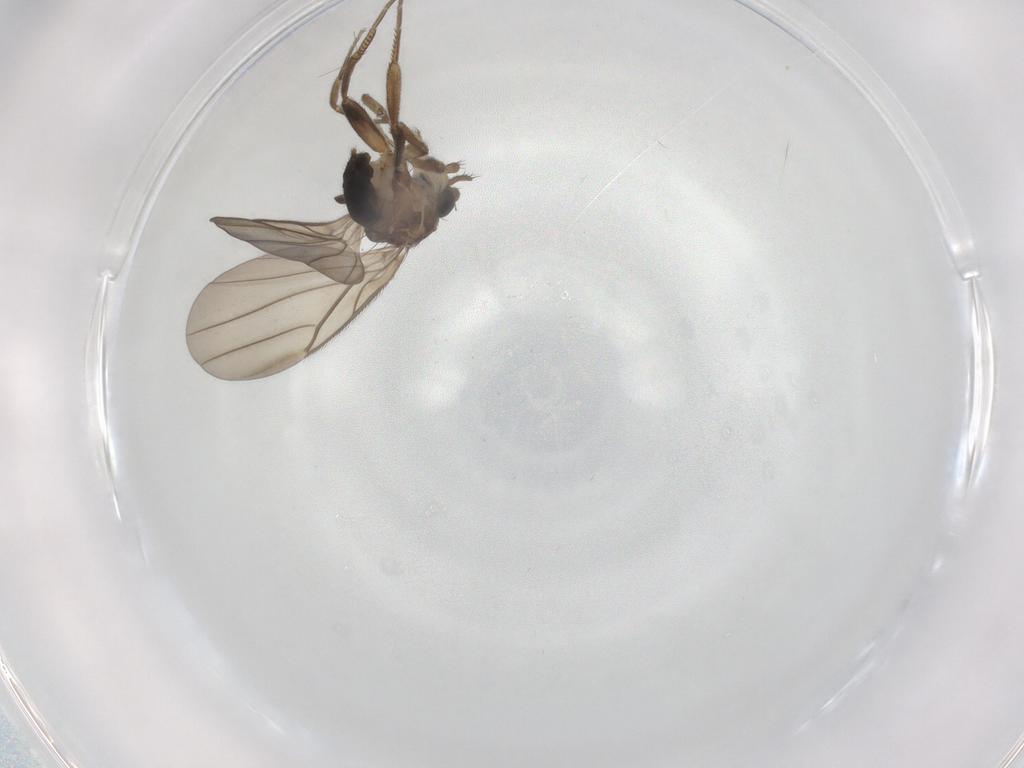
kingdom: Animalia
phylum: Arthropoda
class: Insecta
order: Diptera
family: Phoridae
